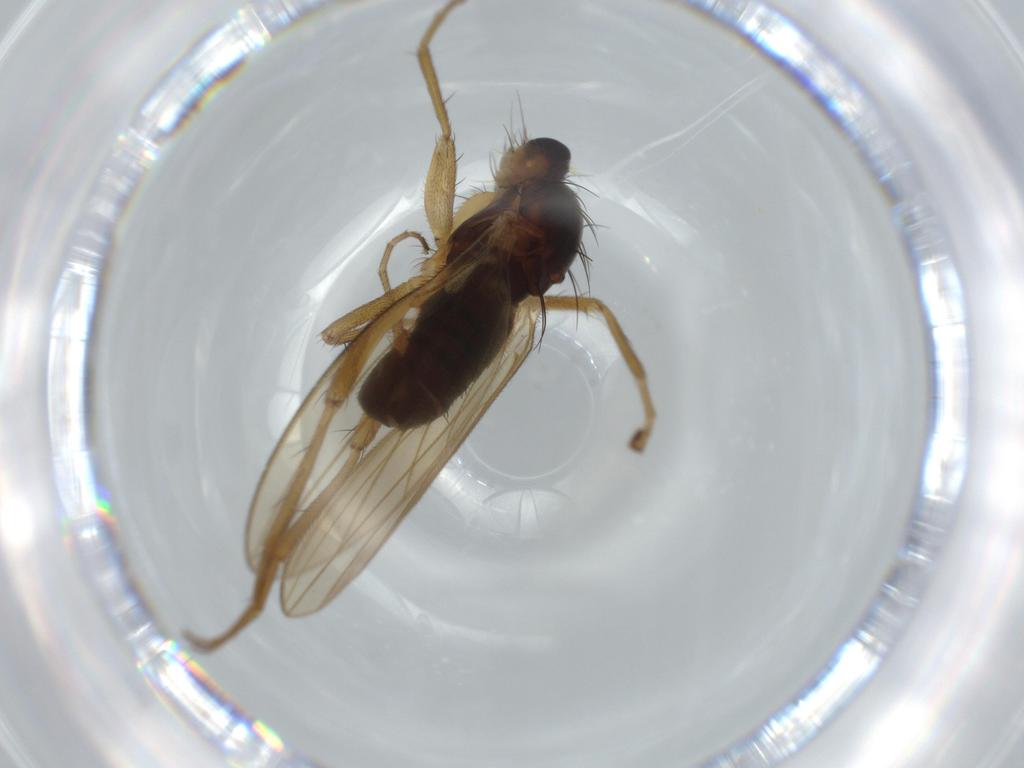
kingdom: Animalia
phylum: Arthropoda
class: Insecta
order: Diptera
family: Lonchopteridae
